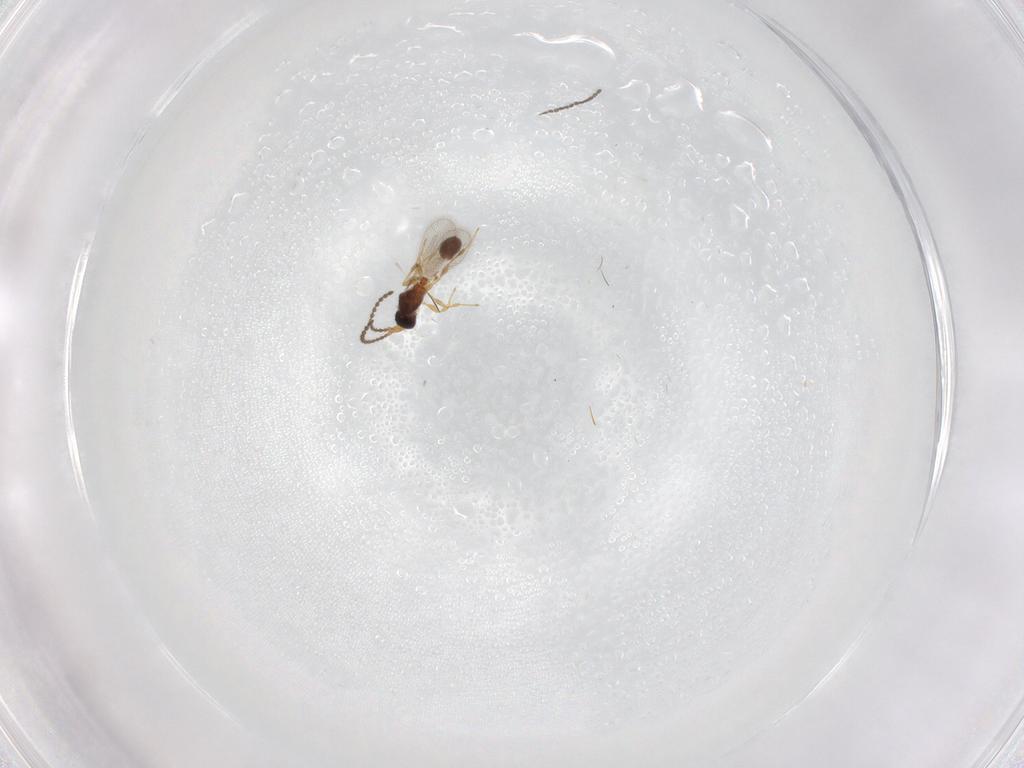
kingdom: Animalia
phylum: Arthropoda
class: Insecta
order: Hymenoptera
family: Diapriidae
